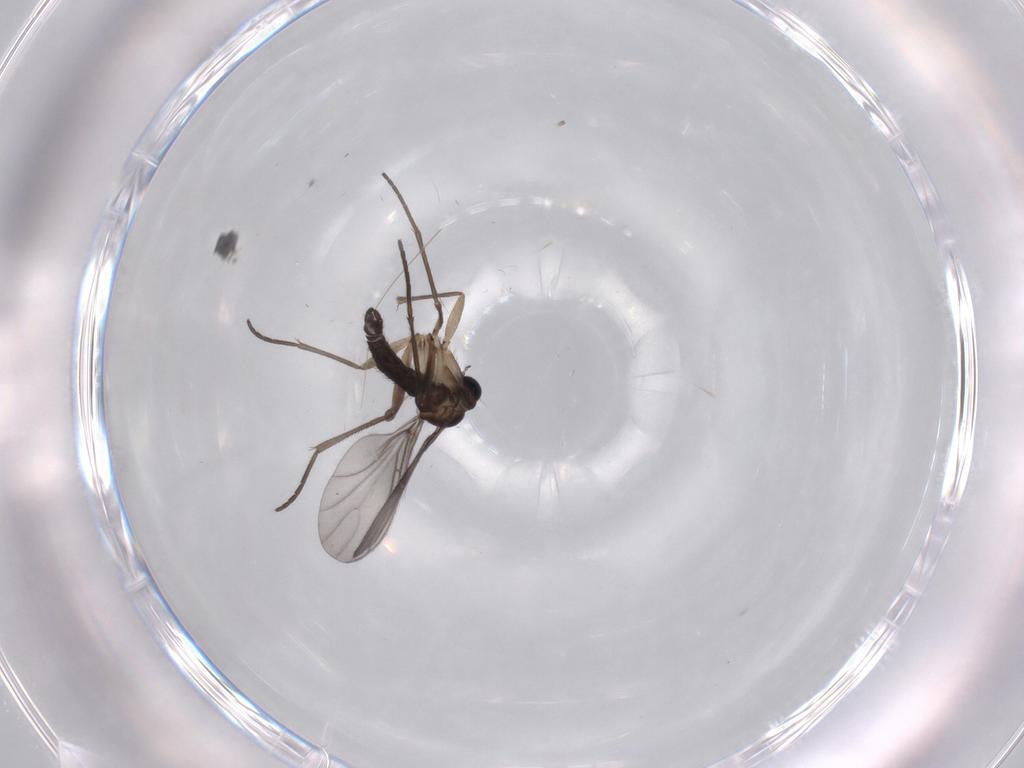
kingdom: Animalia
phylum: Arthropoda
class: Insecta
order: Diptera
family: Sciaridae
